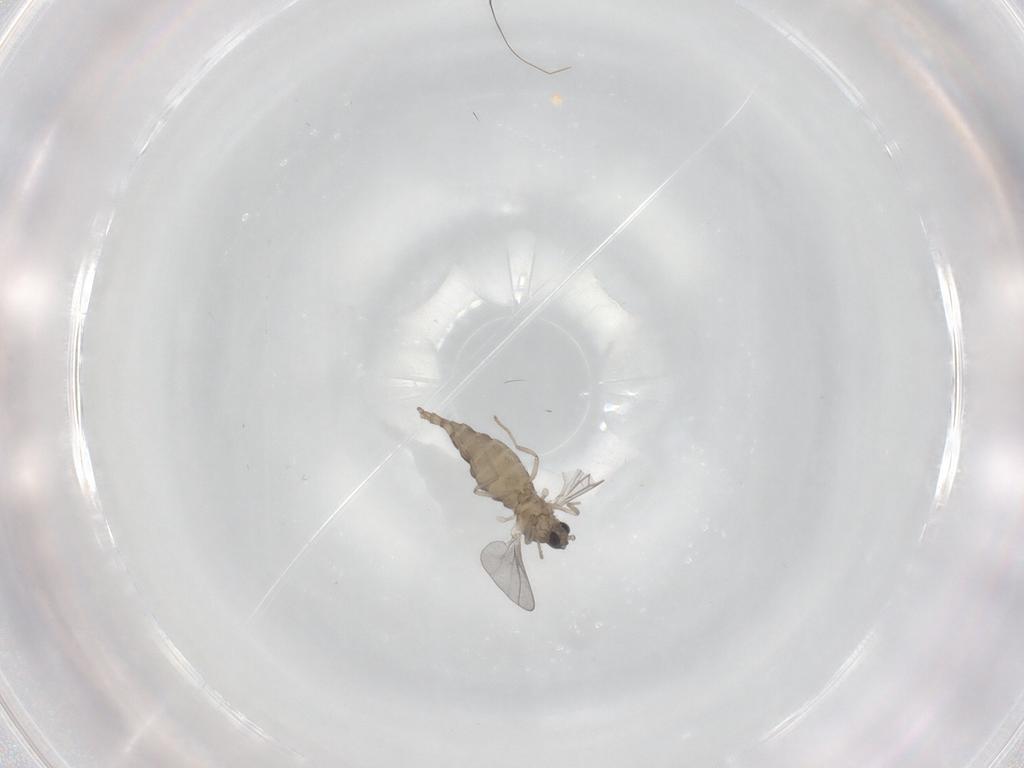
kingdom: Animalia
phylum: Arthropoda
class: Insecta
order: Diptera
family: Cecidomyiidae
